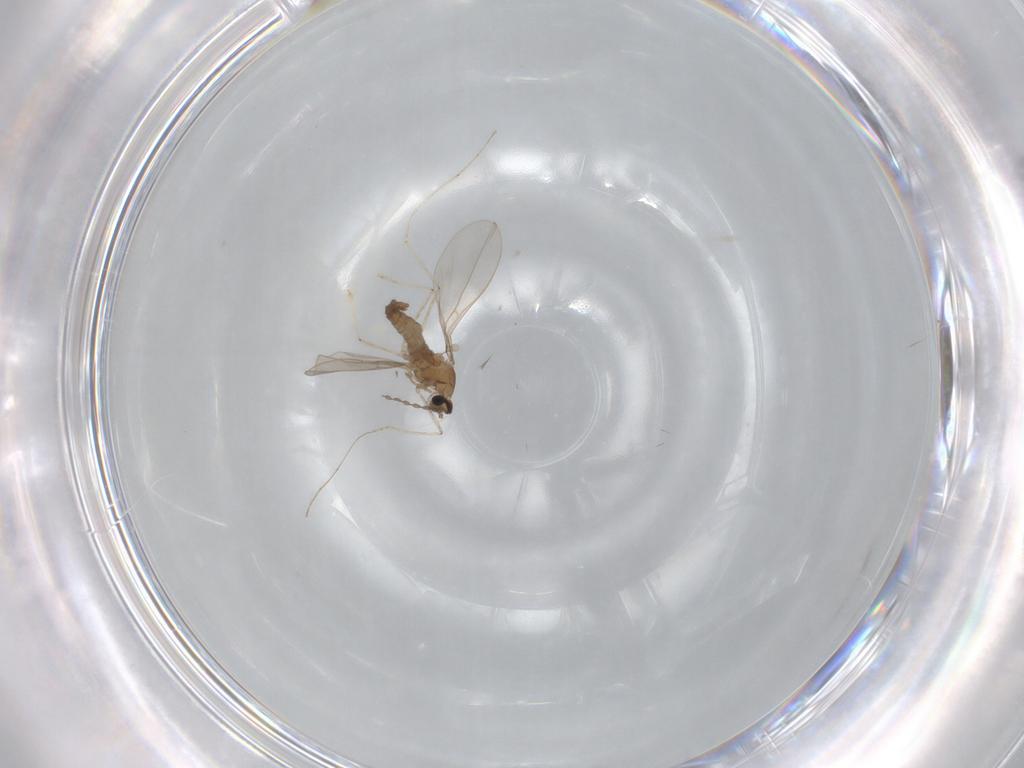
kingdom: Animalia
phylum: Arthropoda
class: Insecta
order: Diptera
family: Cecidomyiidae
